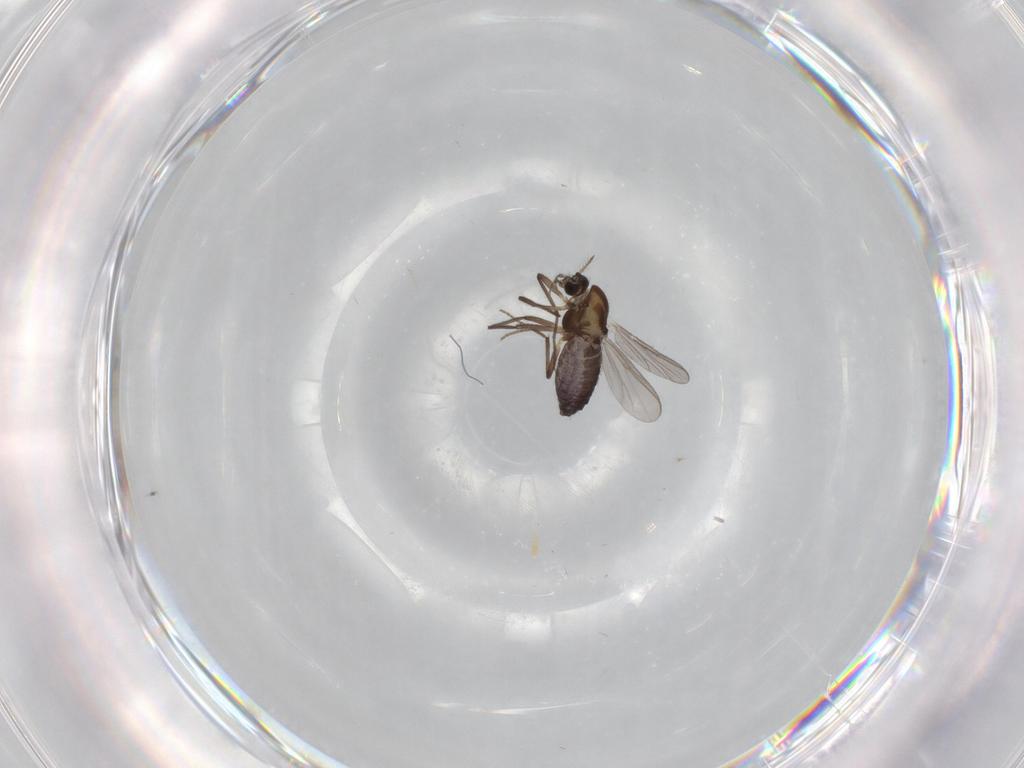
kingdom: Animalia
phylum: Arthropoda
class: Insecta
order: Diptera
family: Chironomidae
